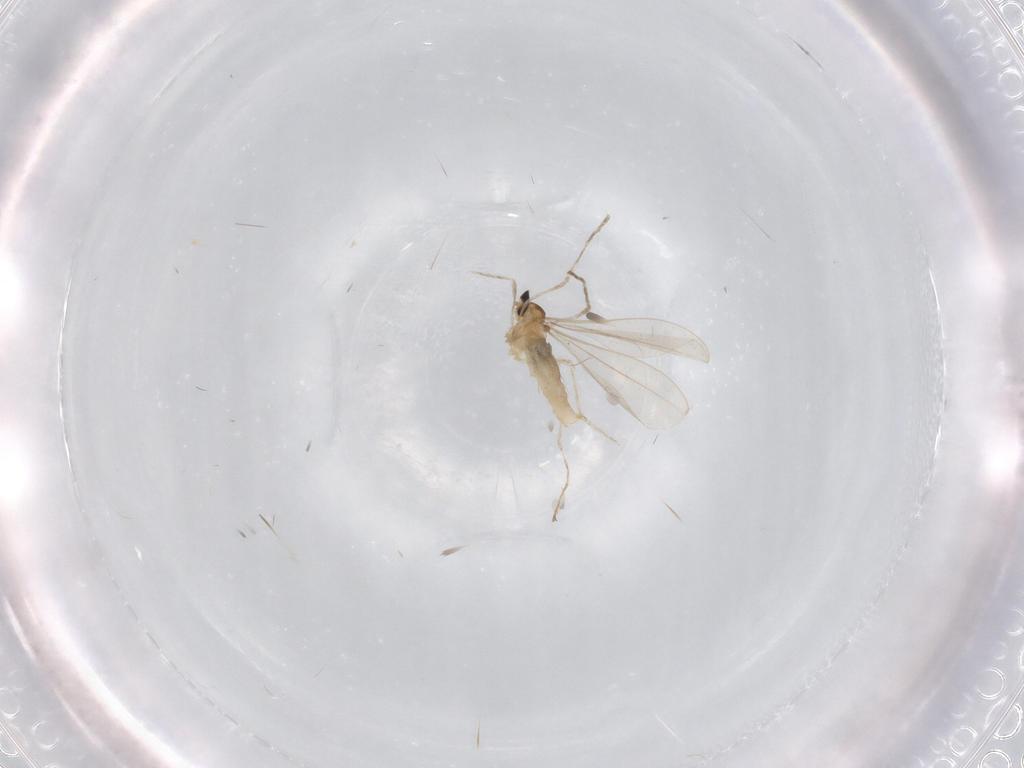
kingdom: Animalia
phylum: Arthropoda
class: Insecta
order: Diptera
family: Cecidomyiidae
